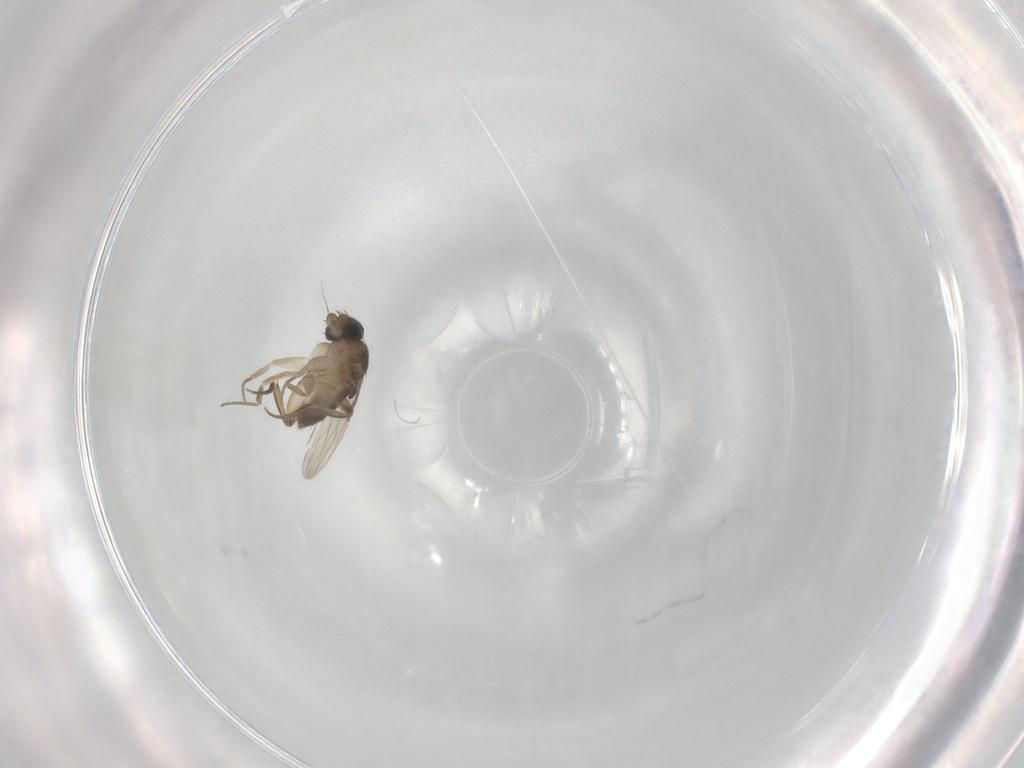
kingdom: Animalia
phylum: Arthropoda
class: Insecta
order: Diptera
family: Phoridae
